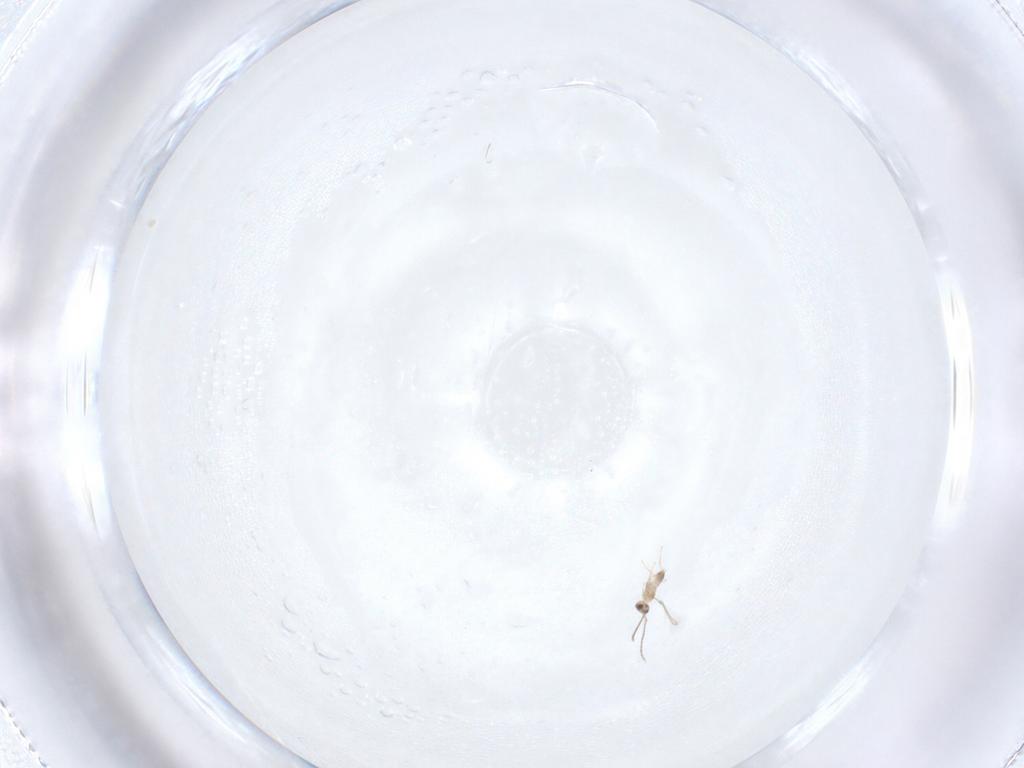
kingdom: Animalia
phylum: Arthropoda
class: Insecta
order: Hymenoptera
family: Mymaridae
